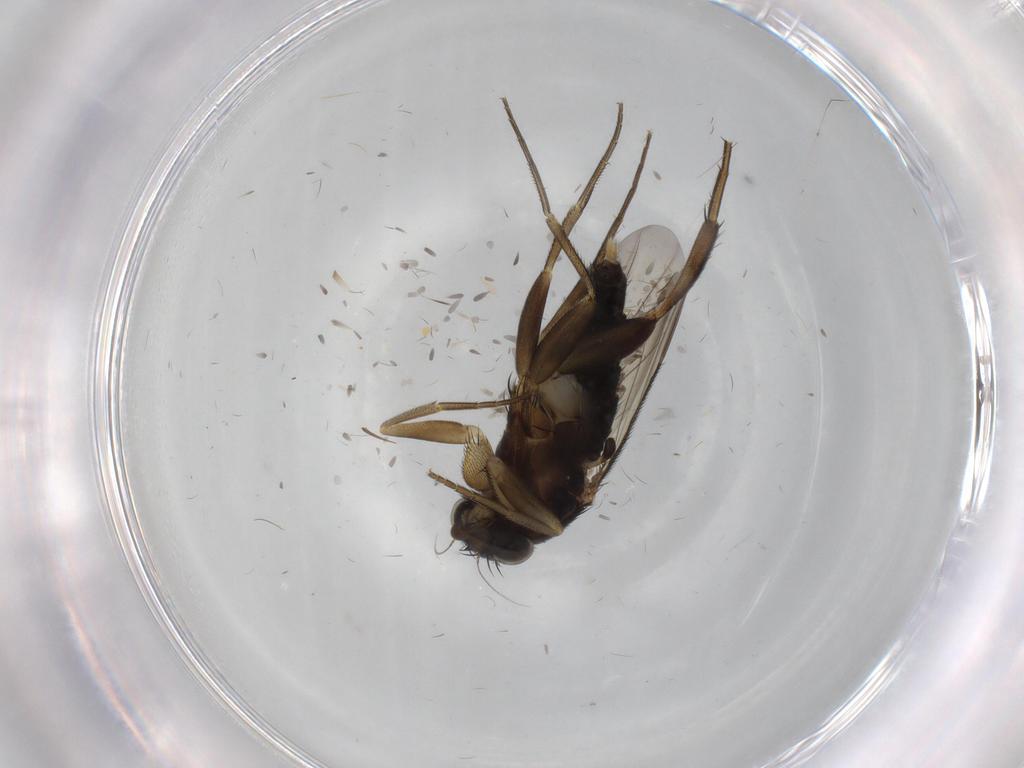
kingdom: Animalia
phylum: Arthropoda
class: Insecta
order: Diptera
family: Phoridae
